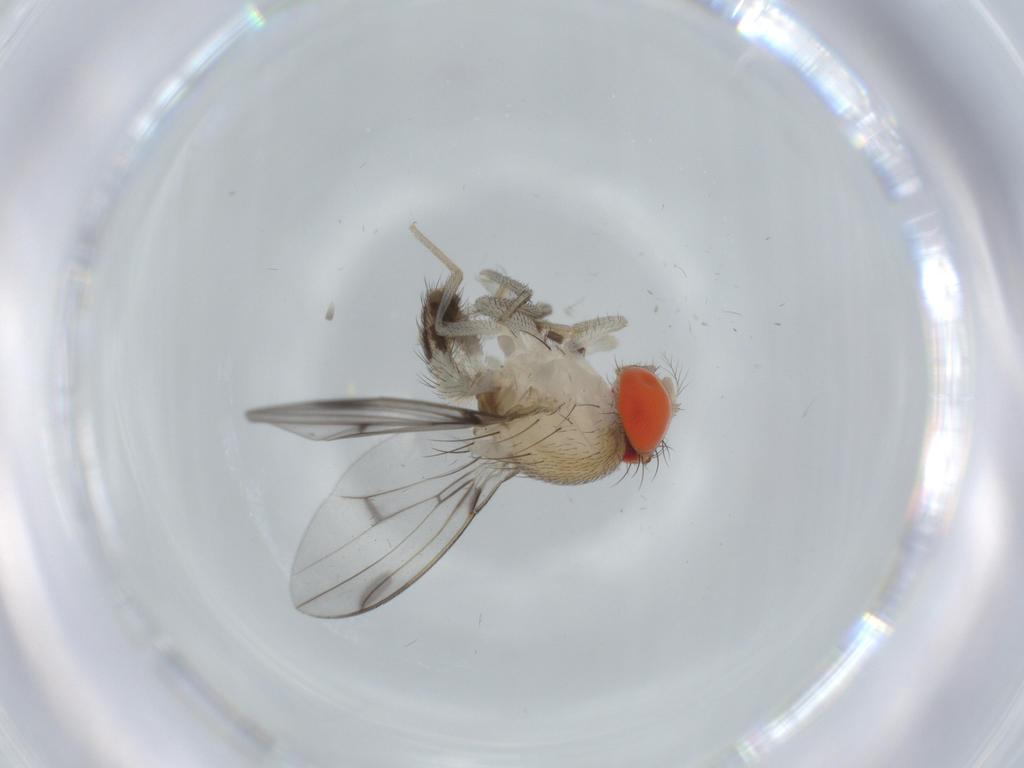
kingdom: Animalia
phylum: Arthropoda
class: Insecta
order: Diptera
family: Drosophilidae
